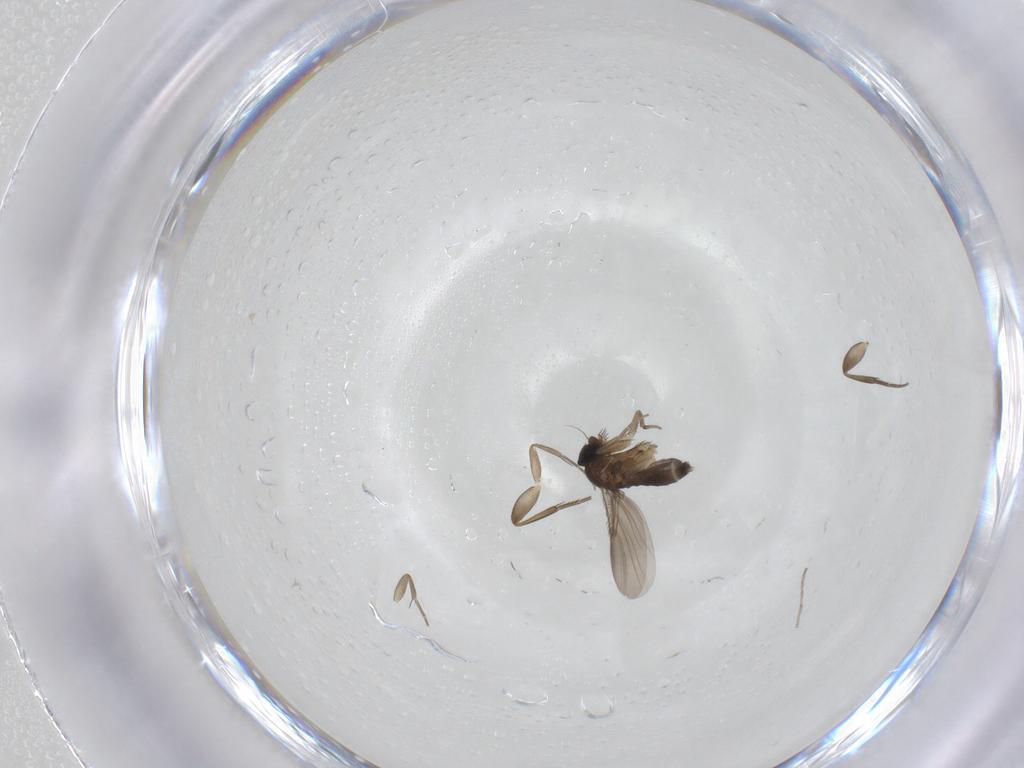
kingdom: Animalia
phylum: Arthropoda
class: Insecta
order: Diptera
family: Phoridae
